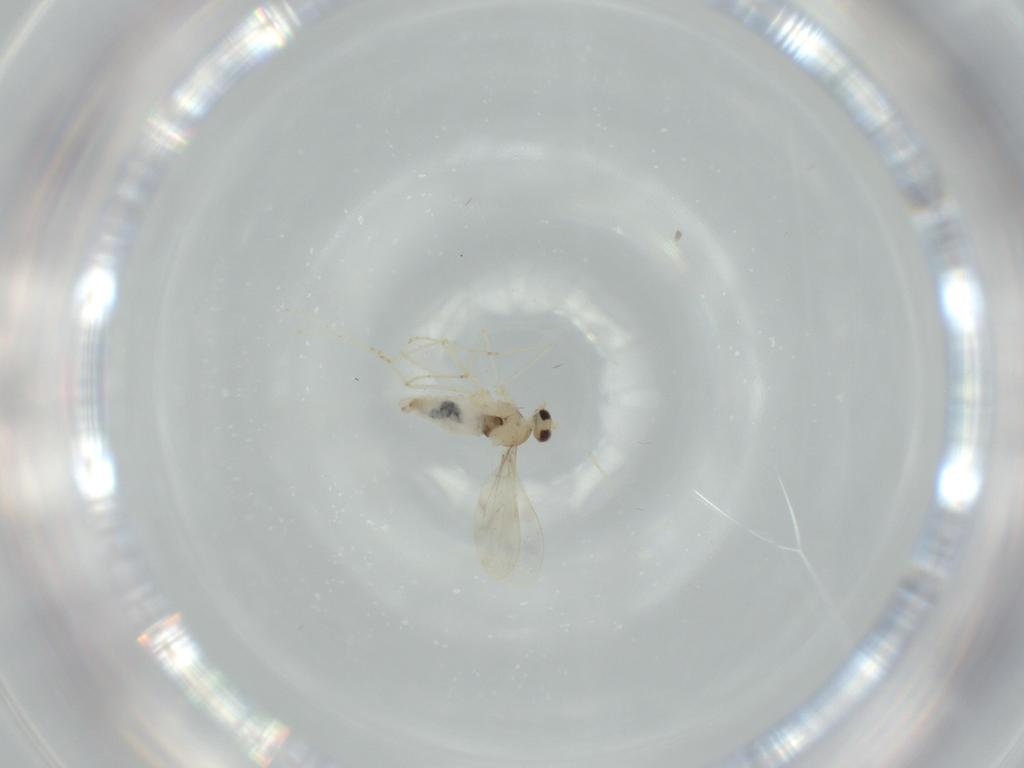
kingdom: Animalia
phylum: Arthropoda
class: Insecta
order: Diptera
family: Cecidomyiidae
